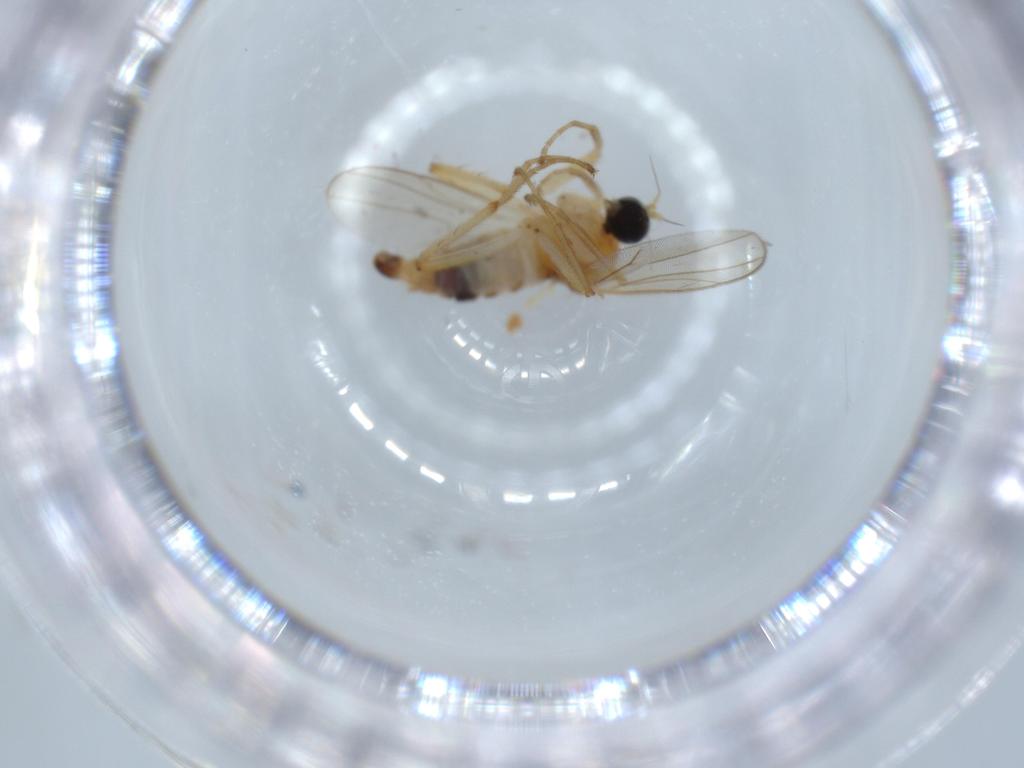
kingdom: Animalia
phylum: Arthropoda
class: Insecta
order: Diptera
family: Hybotidae
